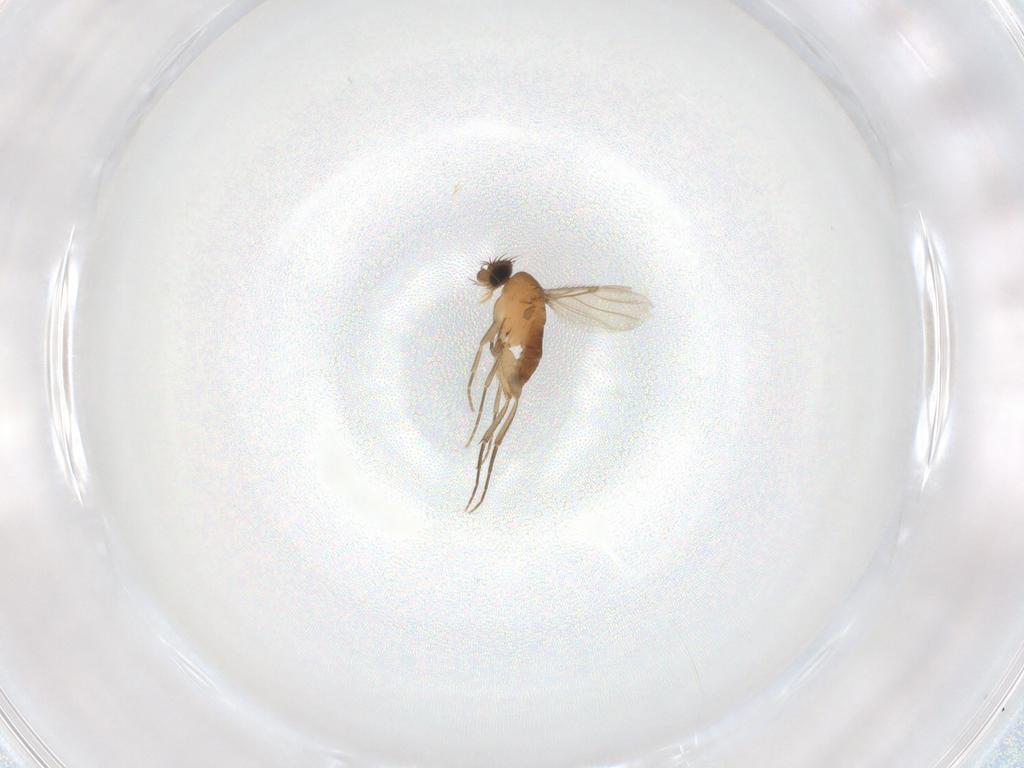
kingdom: Animalia
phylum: Arthropoda
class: Insecta
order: Diptera
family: Phoridae
